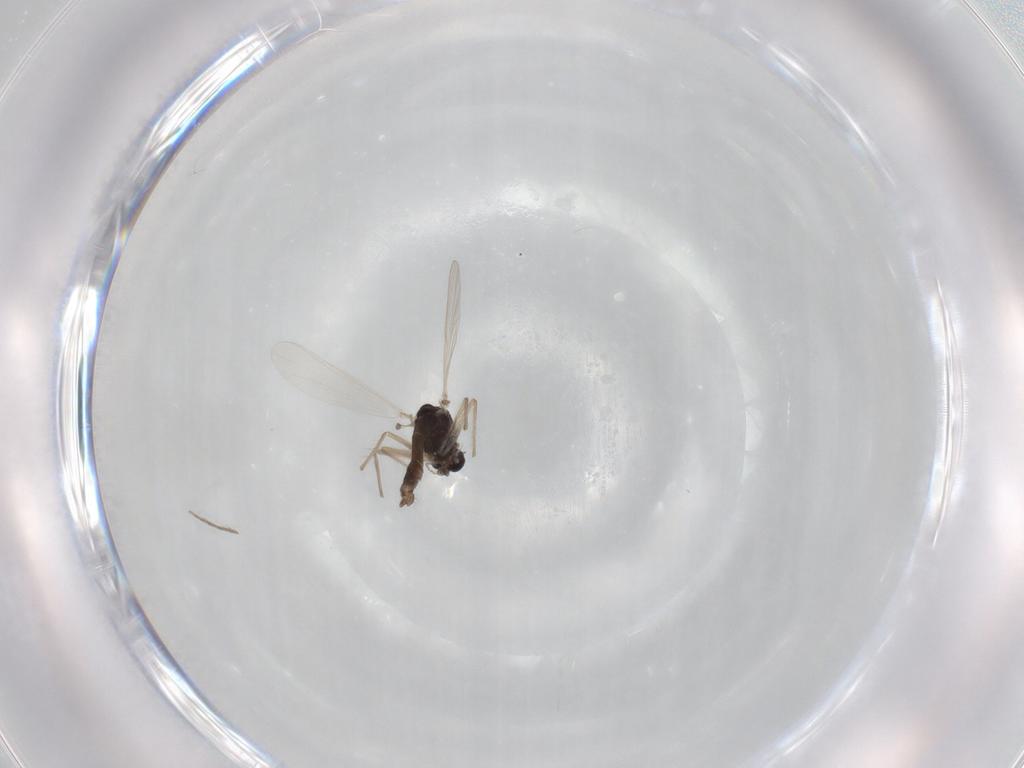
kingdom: Animalia
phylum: Arthropoda
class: Insecta
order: Diptera
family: Chironomidae
